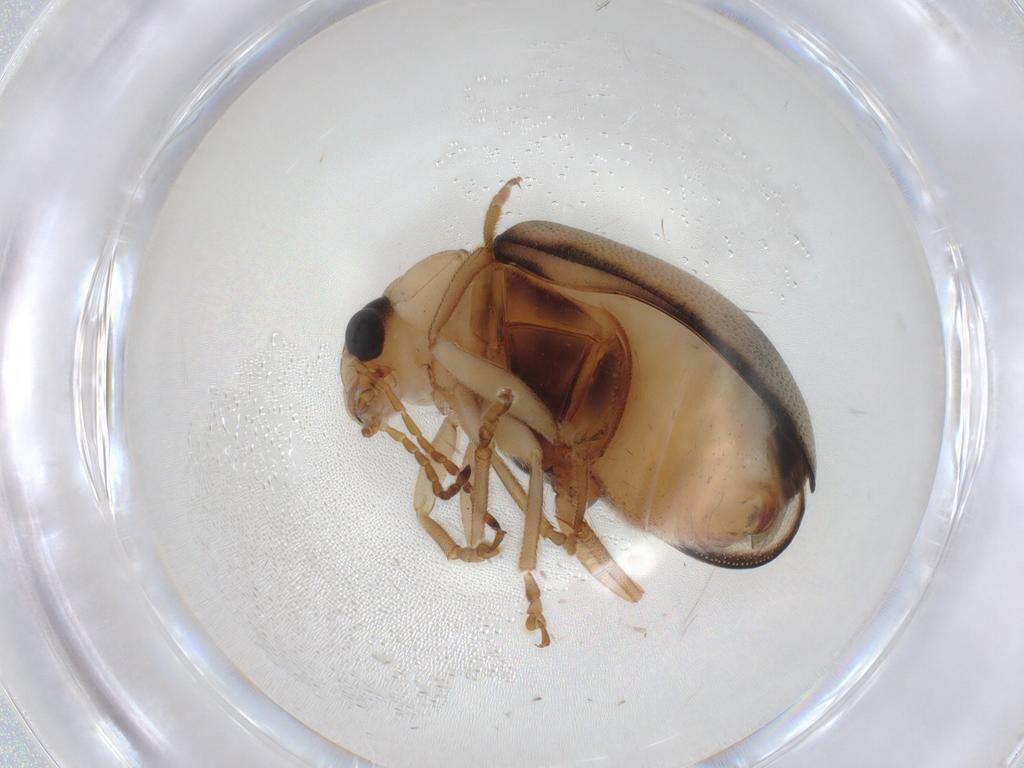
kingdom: Animalia
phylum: Arthropoda
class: Insecta
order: Coleoptera
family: Chrysomelidae
